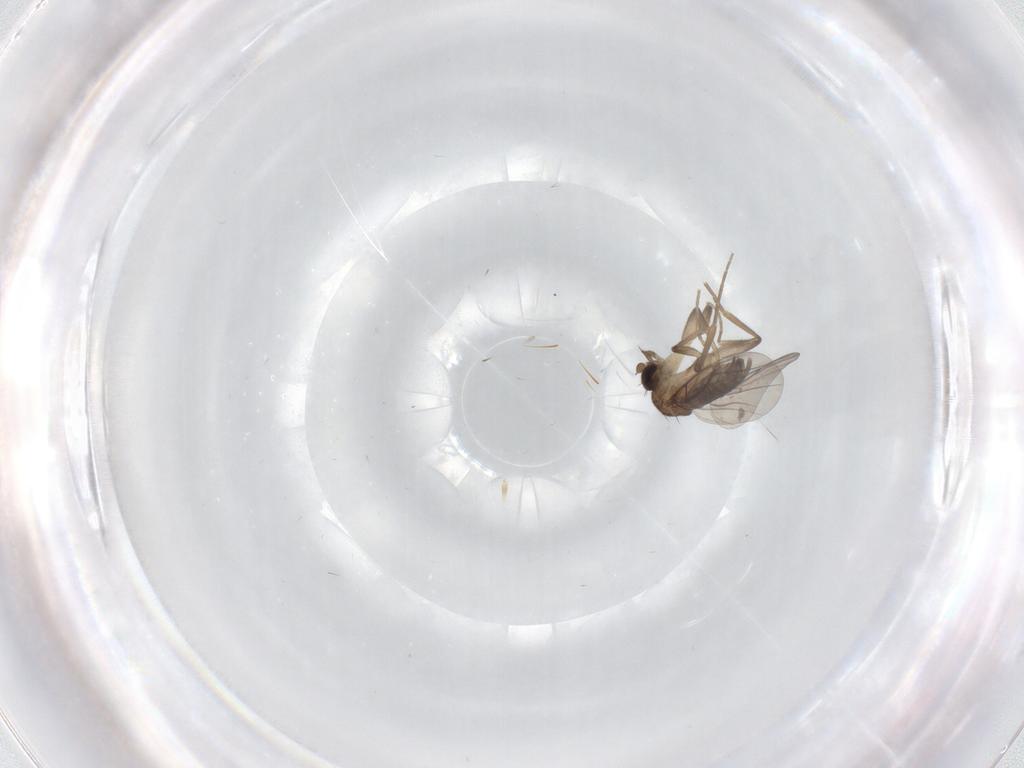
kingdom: Animalia
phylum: Arthropoda
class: Insecta
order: Diptera
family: Phoridae
